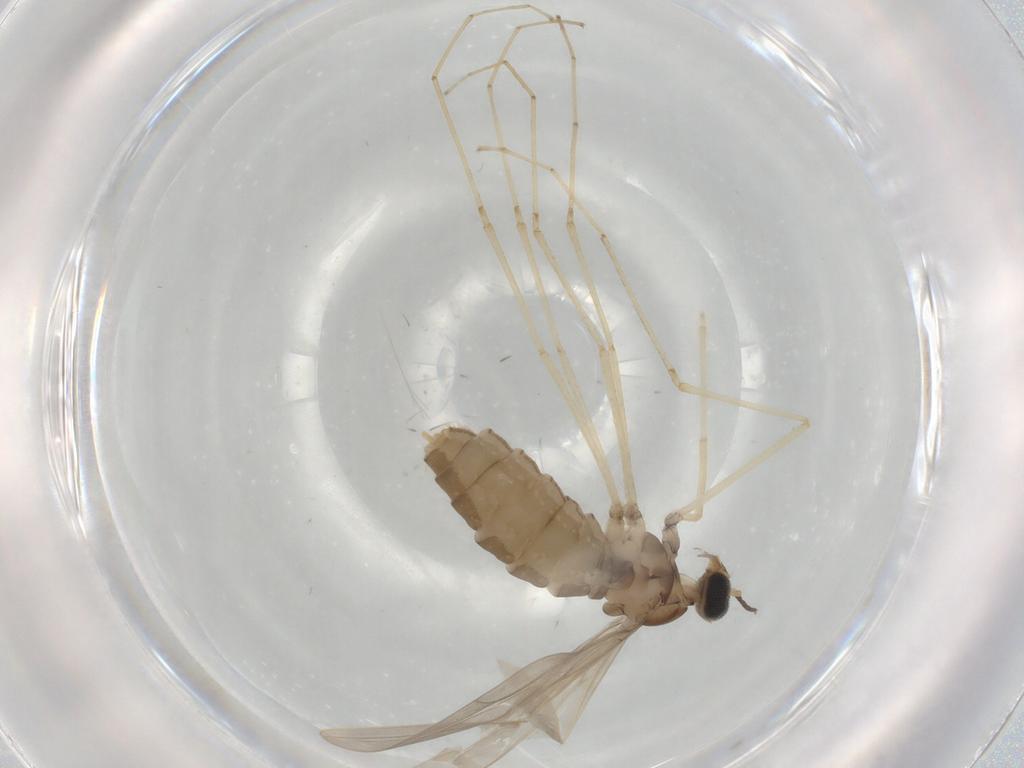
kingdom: Animalia
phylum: Arthropoda
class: Insecta
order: Diptera
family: Cecidomyiidae
